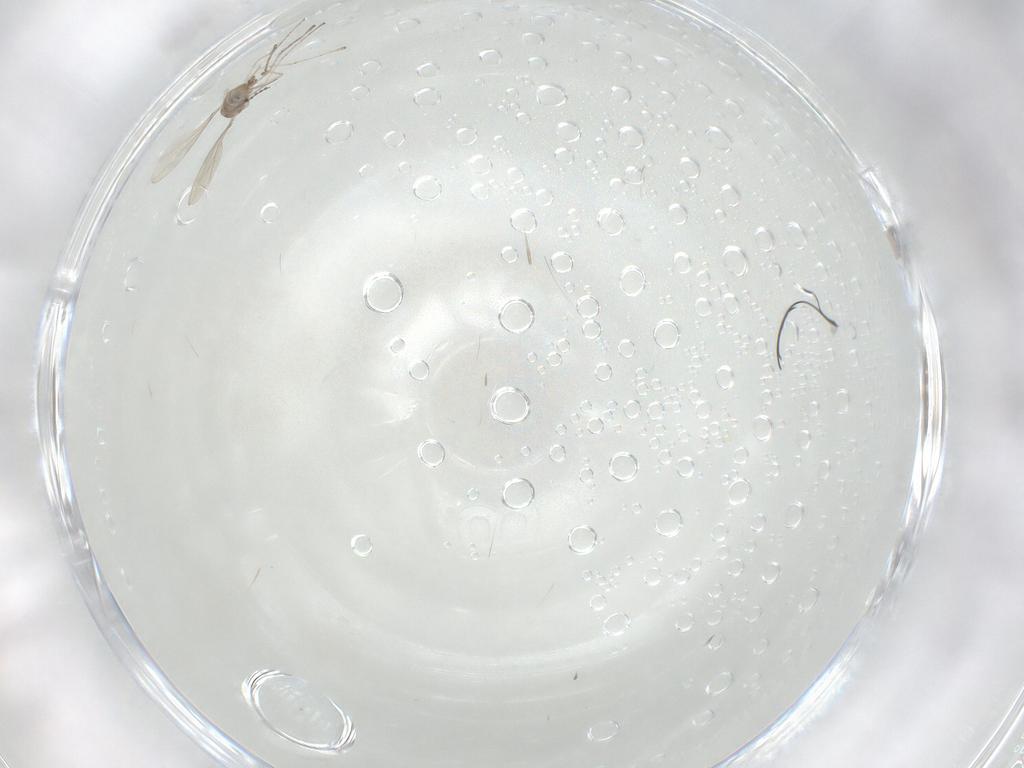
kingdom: Animalia
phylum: Arthropoda
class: Insecta
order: Diptera
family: Cecidomyiidae
